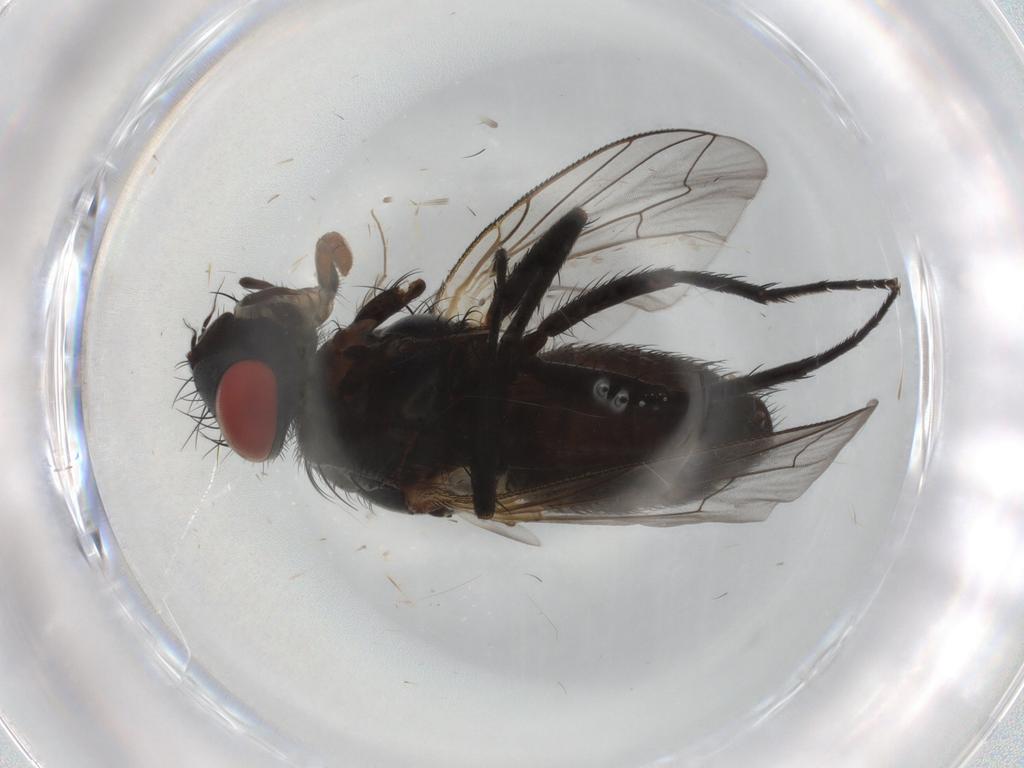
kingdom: Animalia
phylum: Arthropoda
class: Insecta
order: Diptera
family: Sarcophagidae
